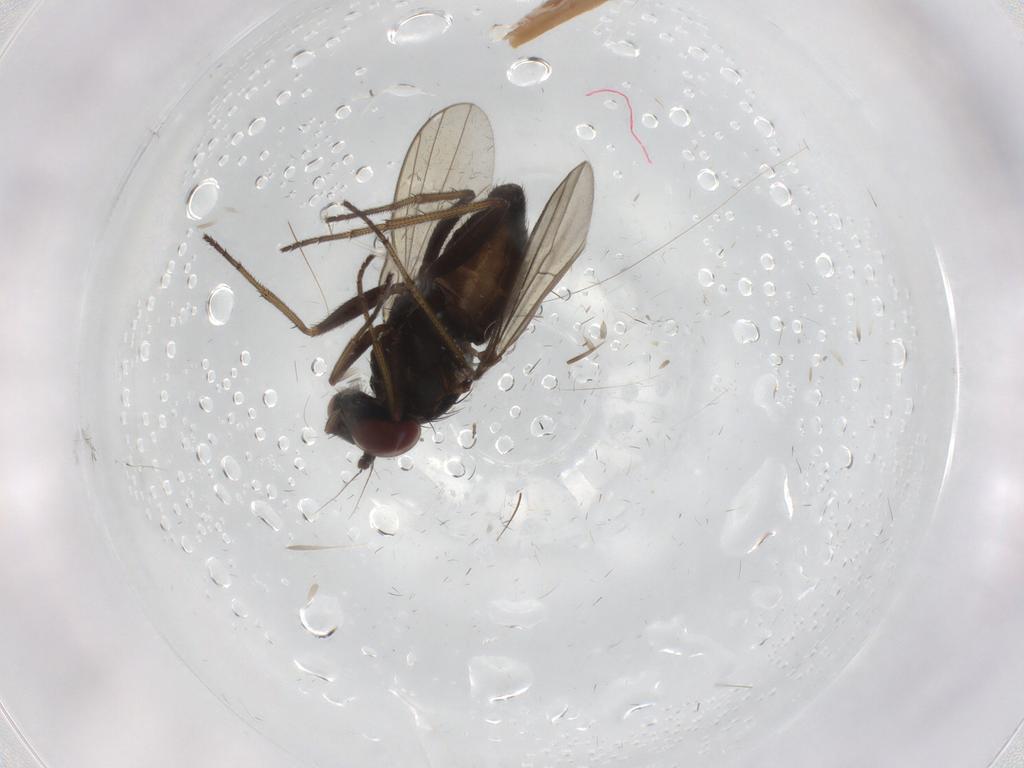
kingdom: Animalia
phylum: Arthropoda
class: Insecta
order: Diptera
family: Dolichopodidae
